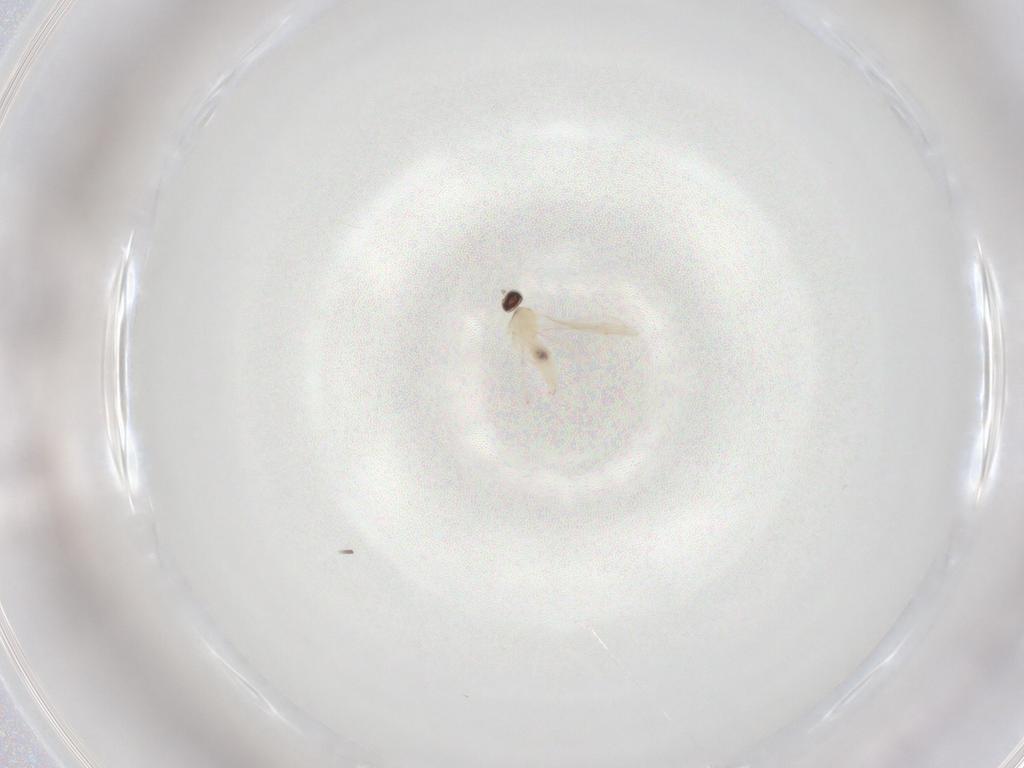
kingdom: Animalia
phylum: Arthropoda
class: Insecta
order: Diptera
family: Chironomidae
